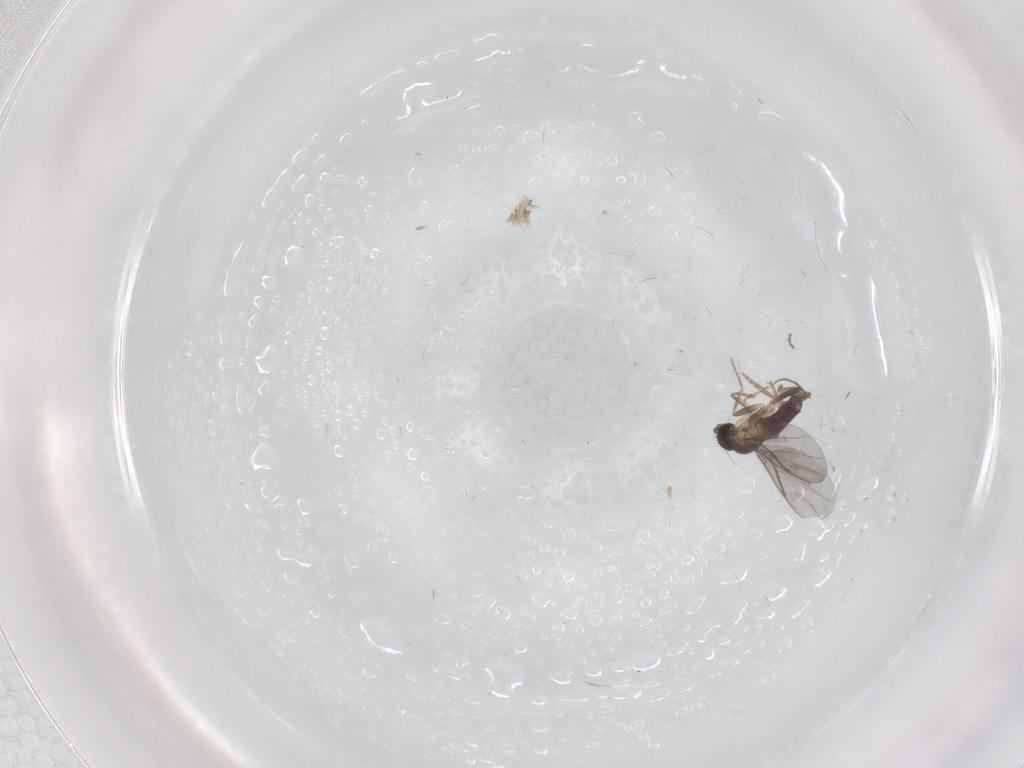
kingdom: Animalia
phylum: Arthropoda
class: Insecta
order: Diptera
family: Chironomidae
